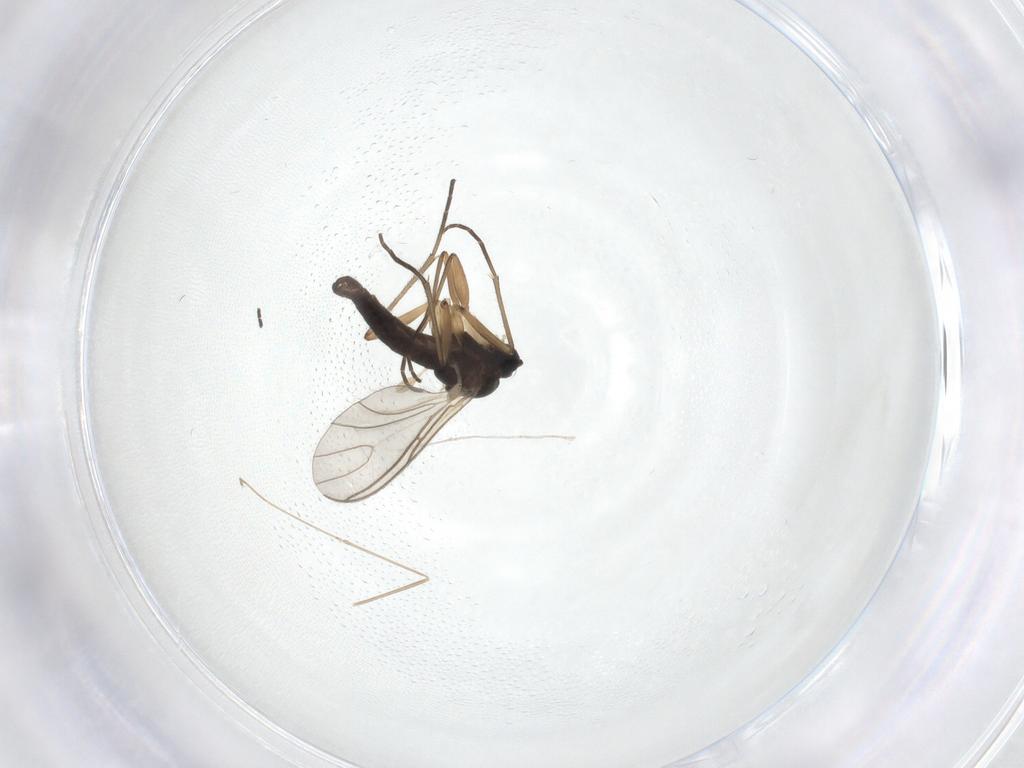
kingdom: Animalia
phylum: Arthropoda
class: Insecta
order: Diptera
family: Sciaridae
